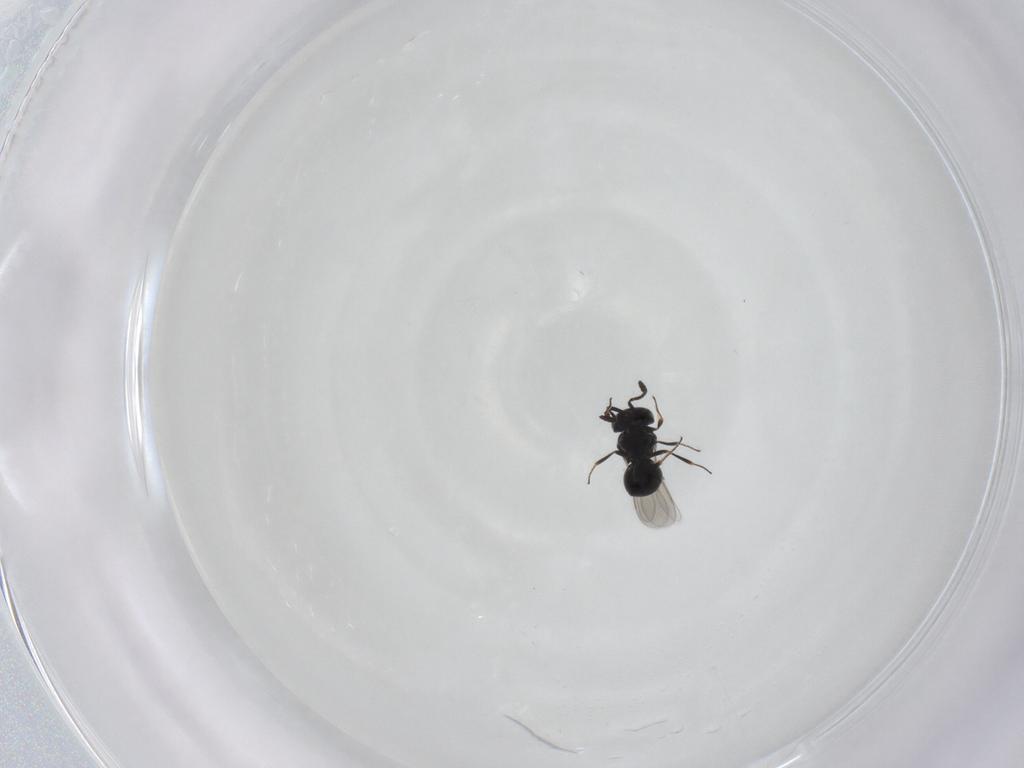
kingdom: Animalia
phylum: Arthropoda
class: Insecta
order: Hymenoptera
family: Scelionidae
